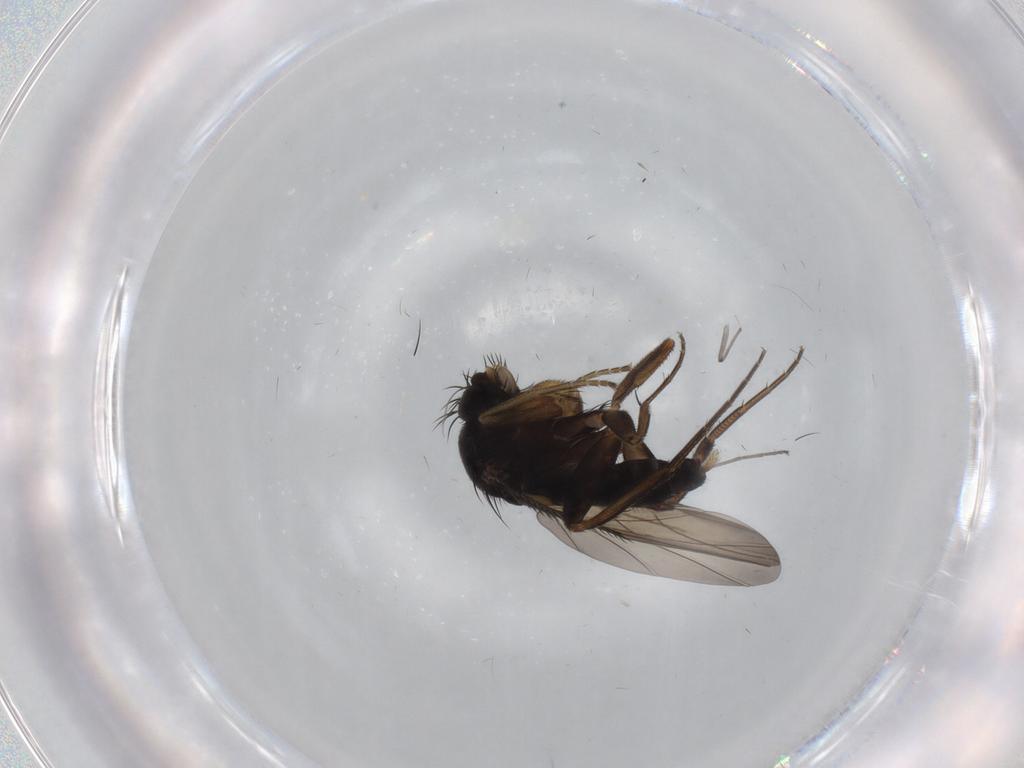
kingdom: Animalia
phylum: Arthropoda
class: Insecta
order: Diptera
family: Phoridae
